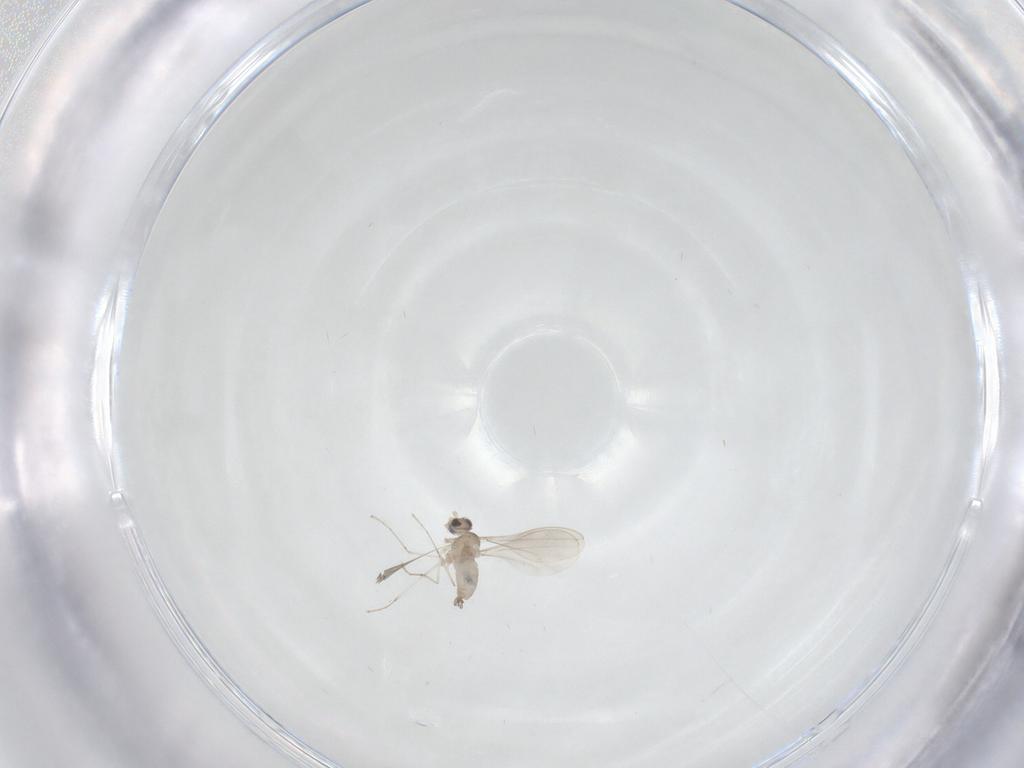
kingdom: Animalia
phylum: Arthropoda
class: Insecta
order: Diptera
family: Cecidomyiidae
